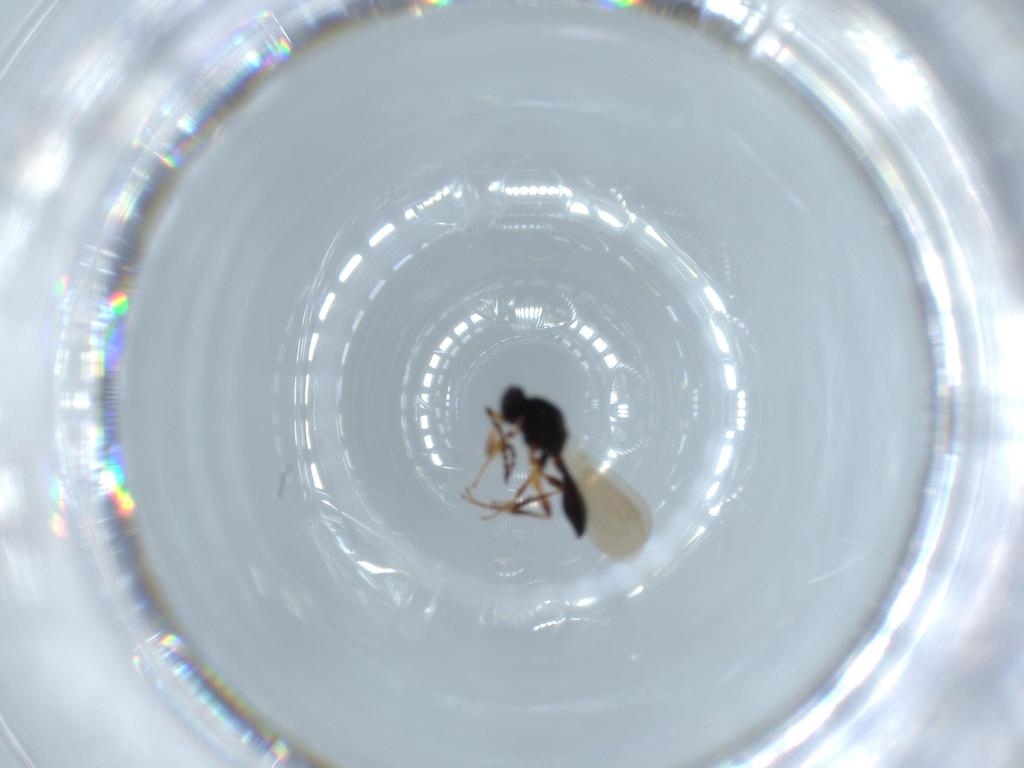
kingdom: Animalia
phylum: Arthropoda
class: Insecta
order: Hymenoptera
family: Platygastridae
